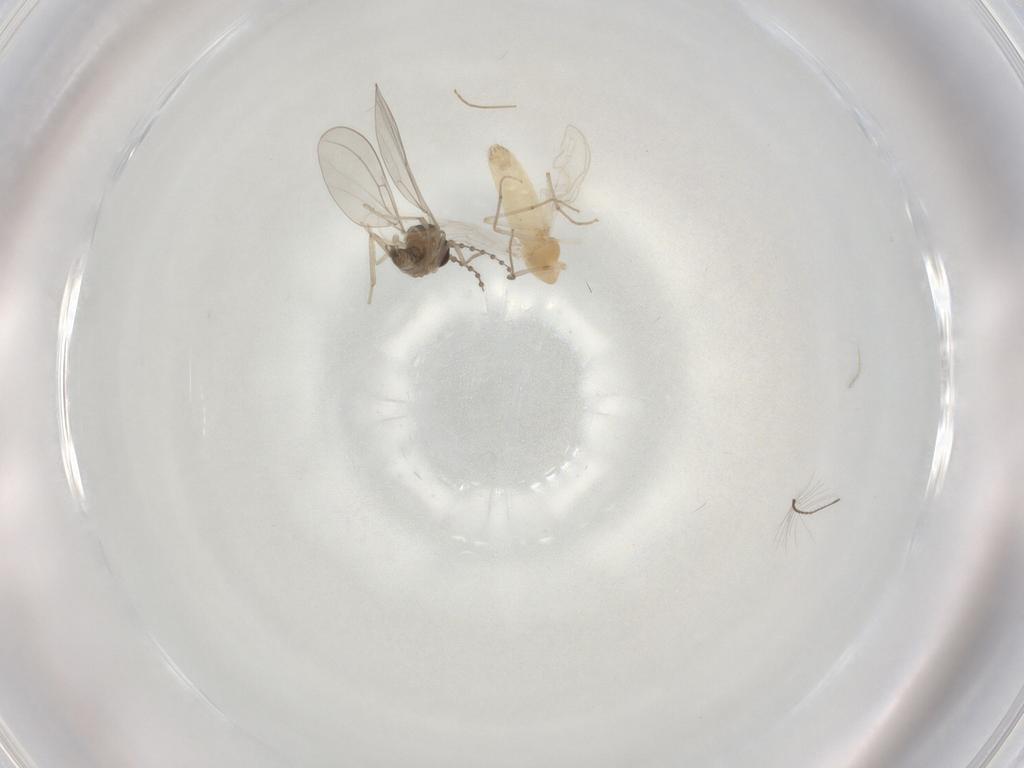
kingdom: Animalia
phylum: Arthropoda
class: Insecta
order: Diptera
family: Chironomidae
